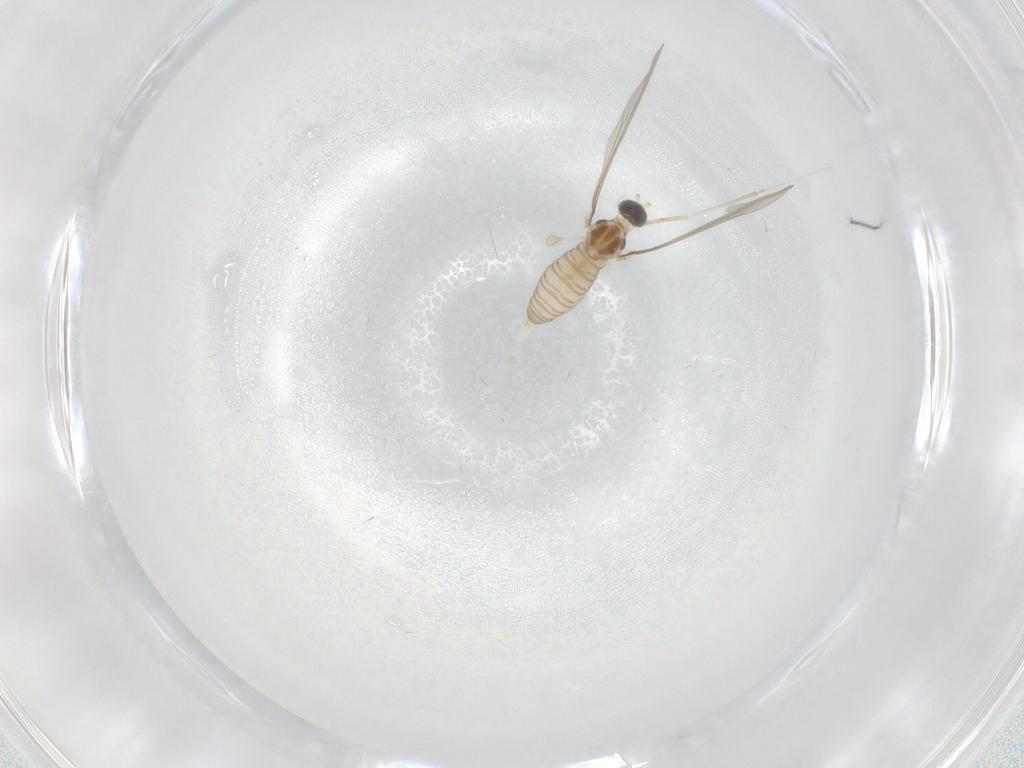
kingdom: Animalia
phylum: Arthropoda
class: Insecta
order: Diptera
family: Cecidomyiidae
